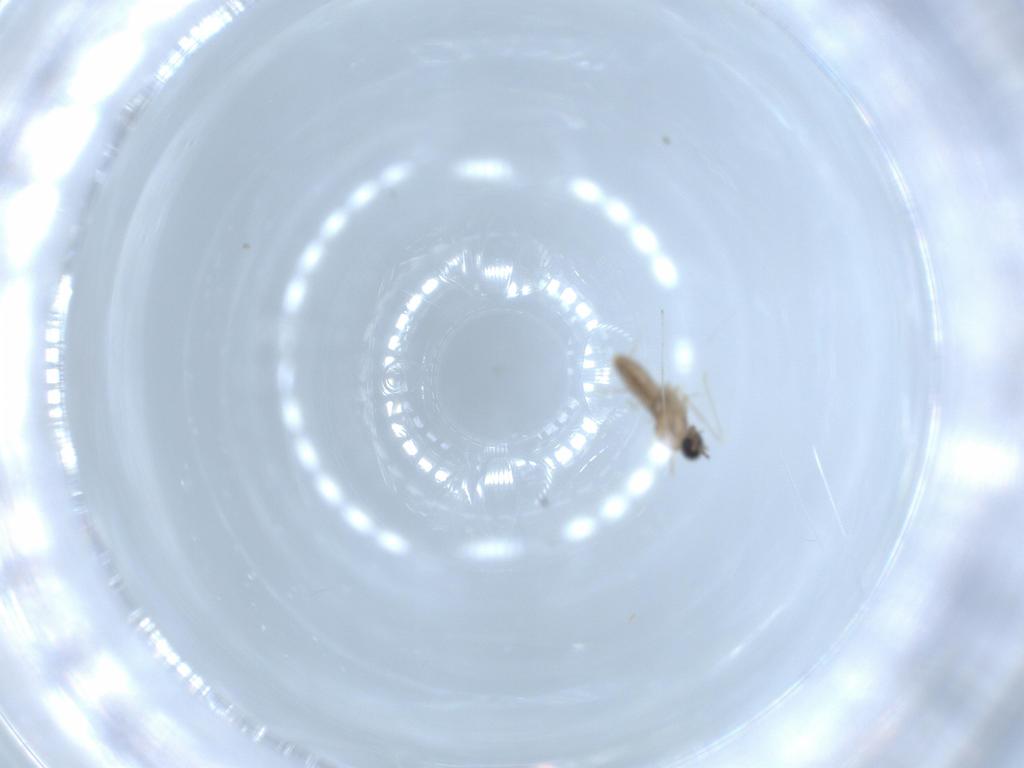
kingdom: Animalia
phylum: Arthropoda
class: Insecta
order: Diptera
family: Cecidomyiidae
